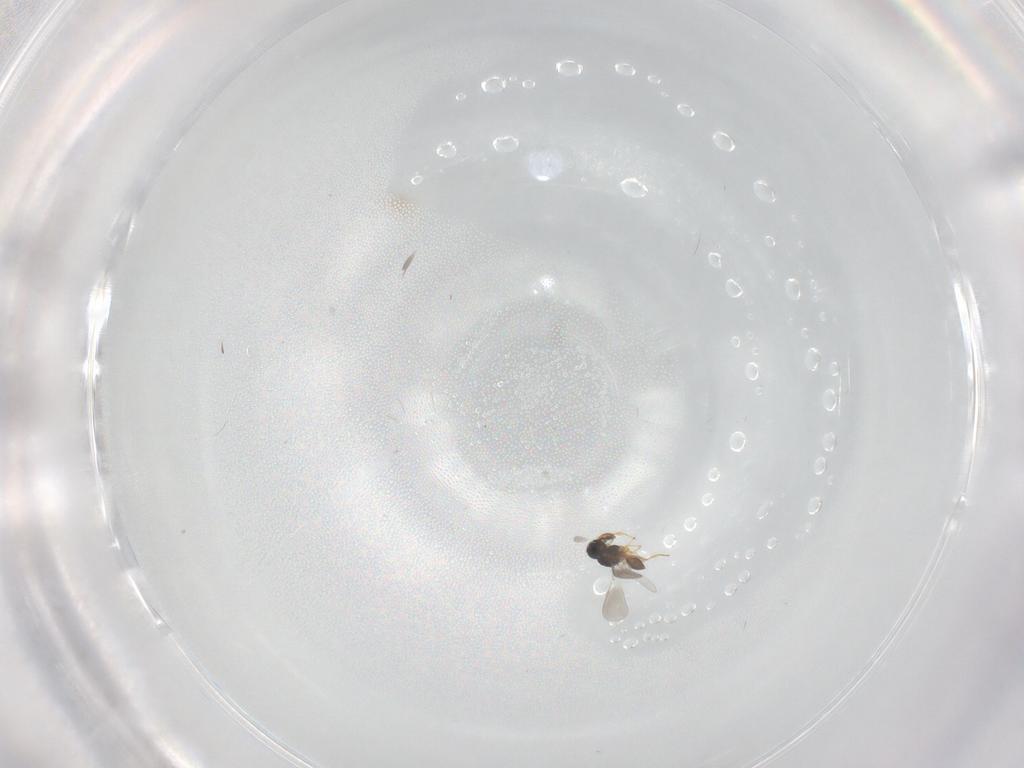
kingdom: Animalia
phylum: Arthropoda
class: Insecta
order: Hymenoptera
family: Platygastridae
